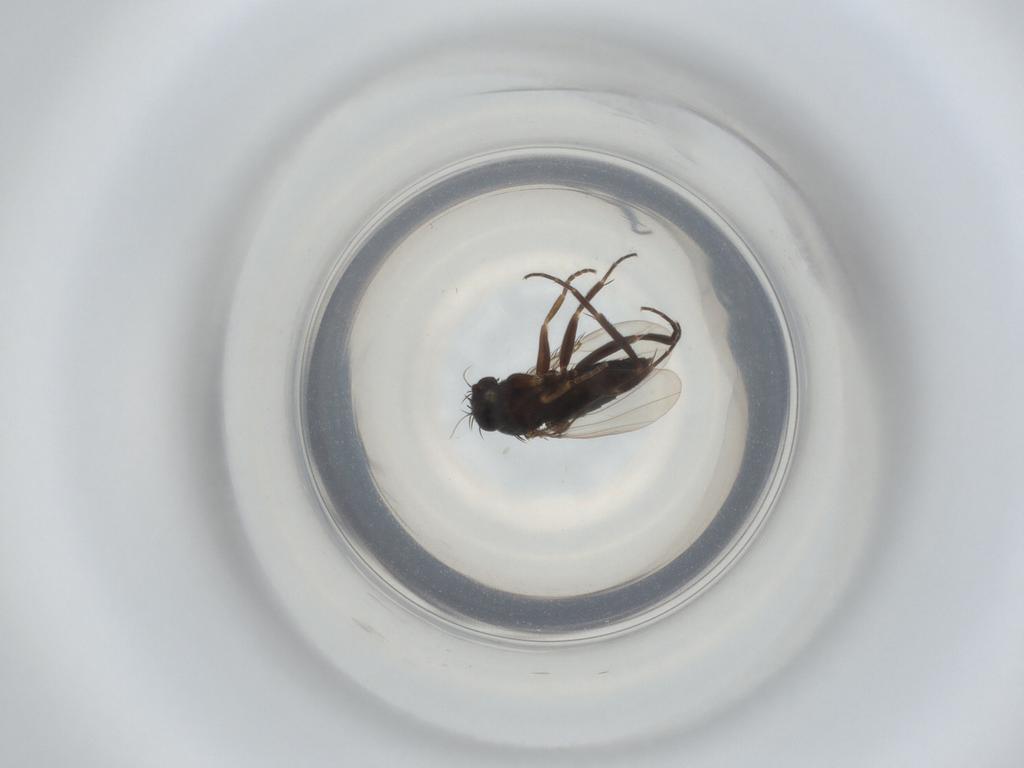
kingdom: Animalia
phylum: Arthropoda
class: Insecta
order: Diptera
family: Phoridae
